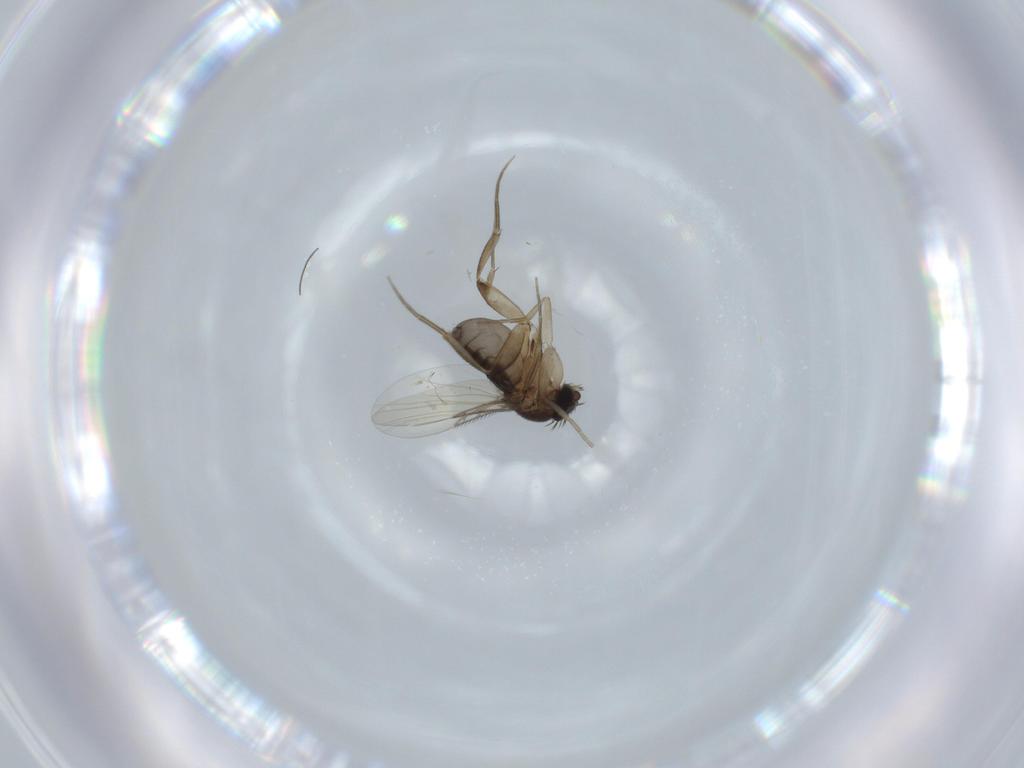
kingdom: Animalia
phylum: Arthropoda
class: Insecta
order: Diptera
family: Phoridae
